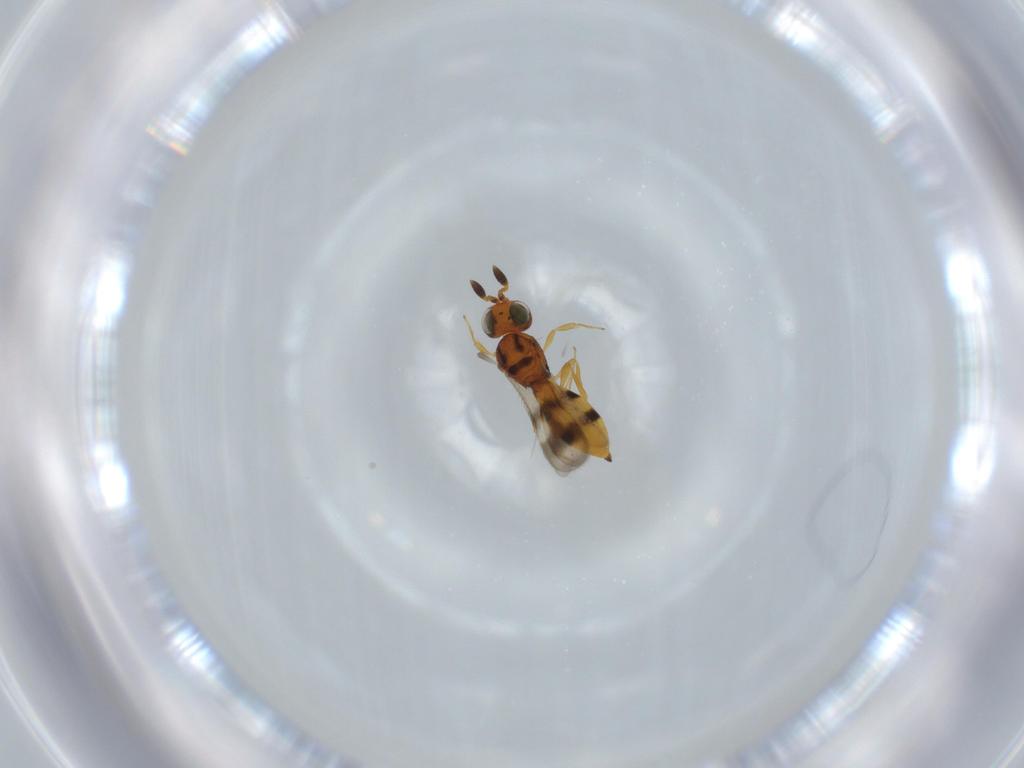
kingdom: Animalia
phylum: Arthropoda
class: Insecta
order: Hymenoptera
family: Scelionidae
